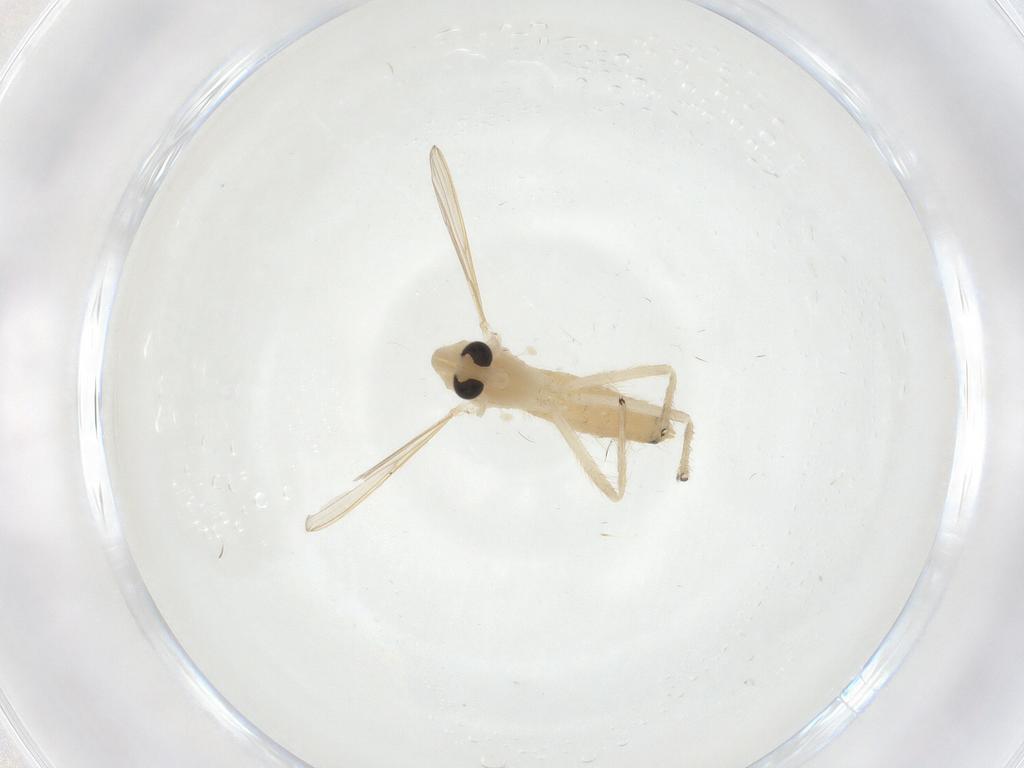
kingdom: Animalia
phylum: Arthropoda
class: Insecta
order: Diptera
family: Chironomidae
